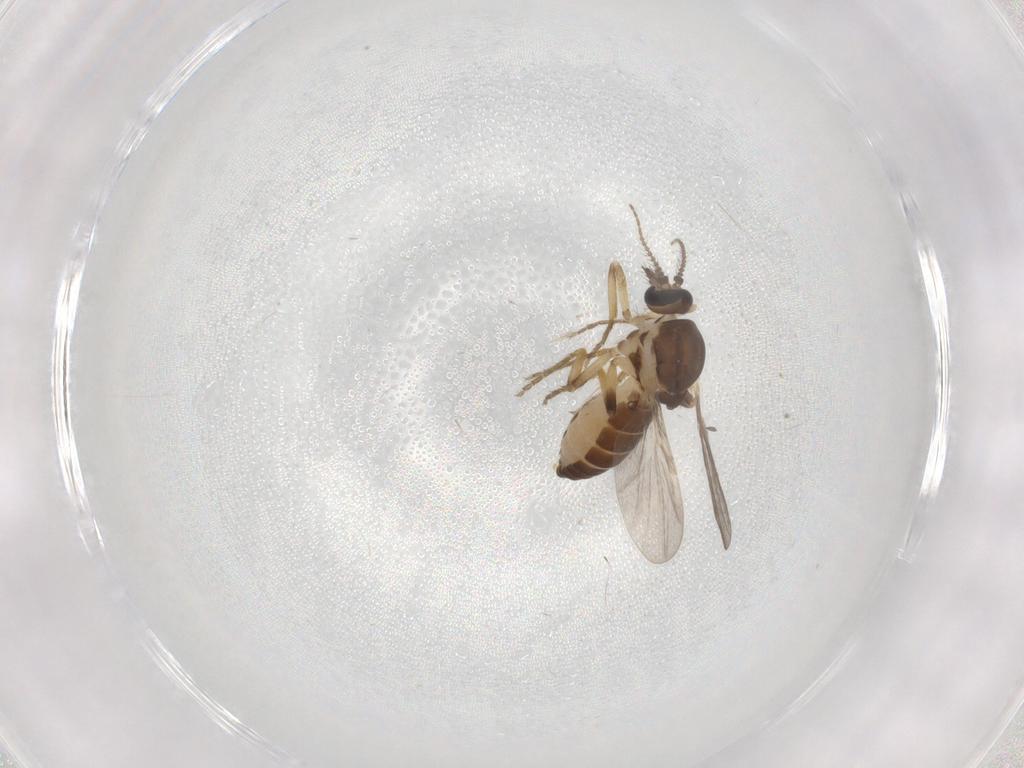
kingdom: Animalia
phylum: Arthropoda
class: Insecta
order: Diptera
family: Ceratopogonidae
